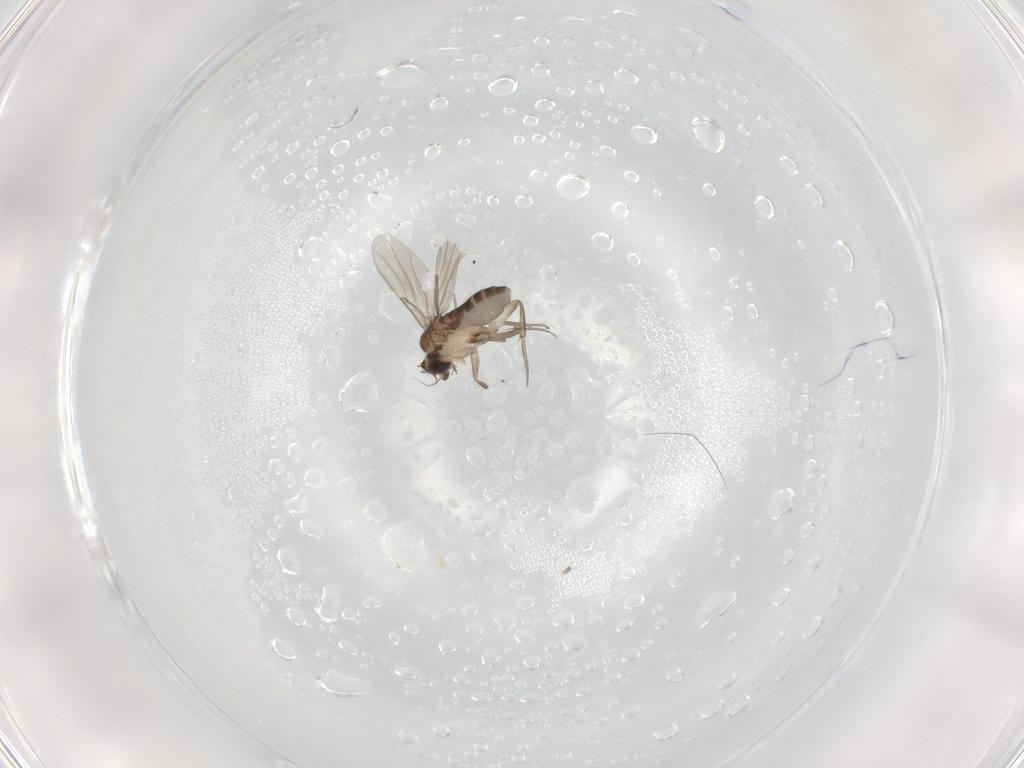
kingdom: Animalia
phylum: Arthropoda
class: Insecta
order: Diptera
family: Phoridae
